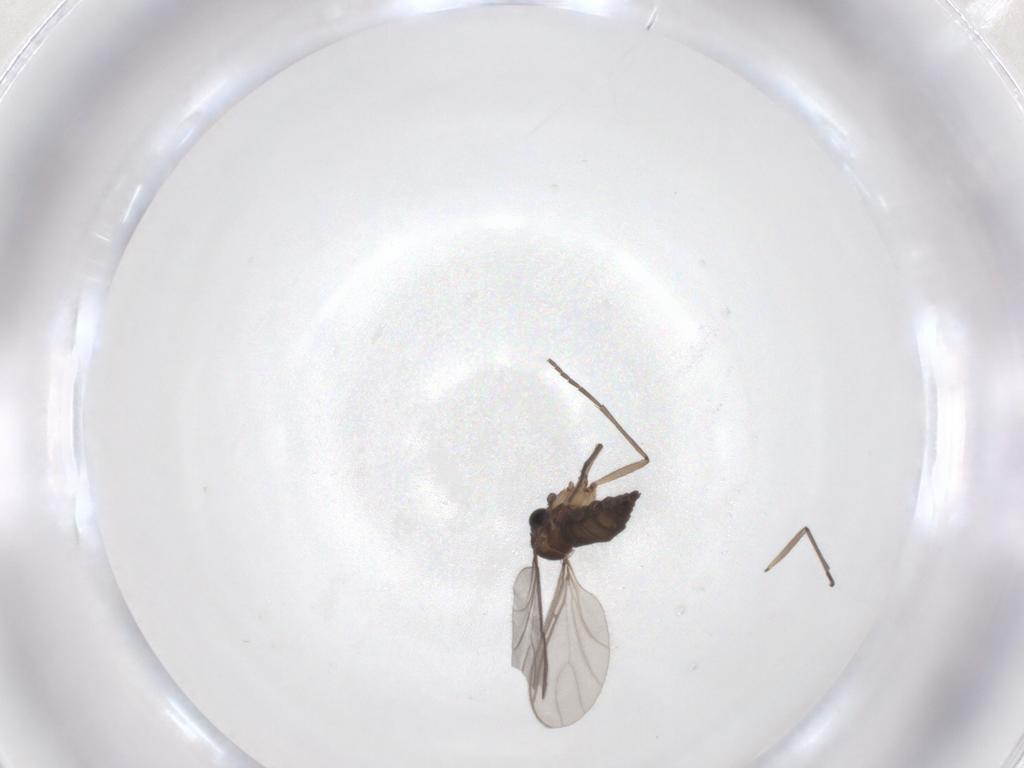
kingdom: Animalia
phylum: Arthropoda
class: Insecta
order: Diptera
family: Sciaridae
